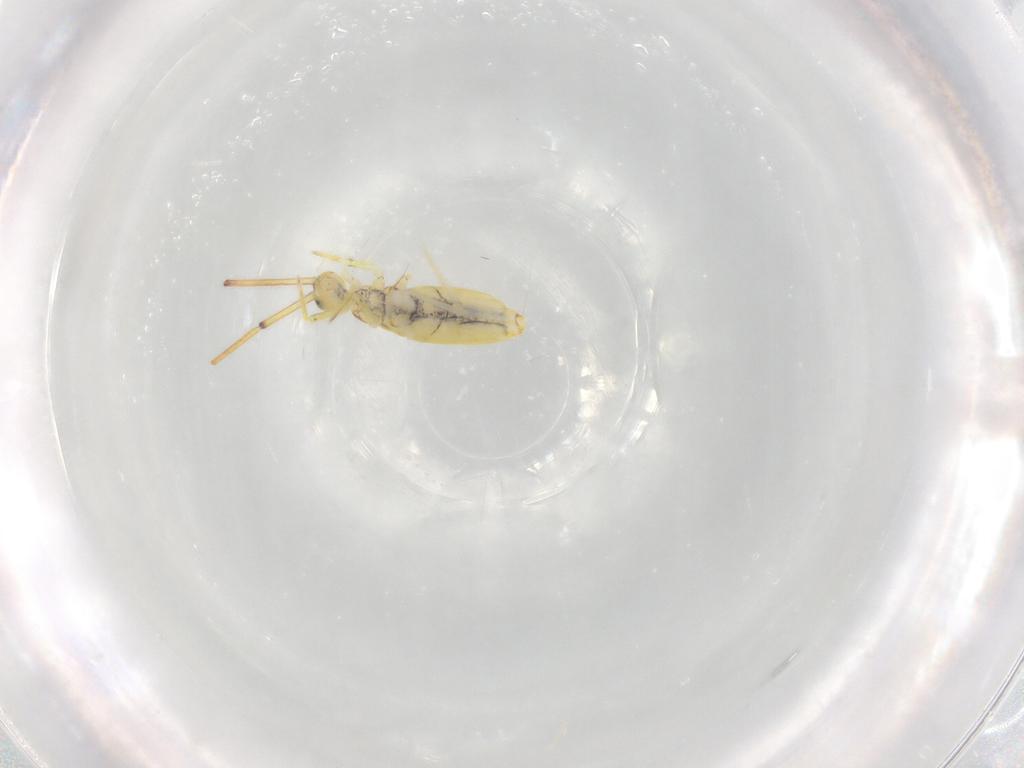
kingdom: Animalia
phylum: Arthropoda
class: Collembola
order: Entomobryomorpha
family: Entomobryidae
